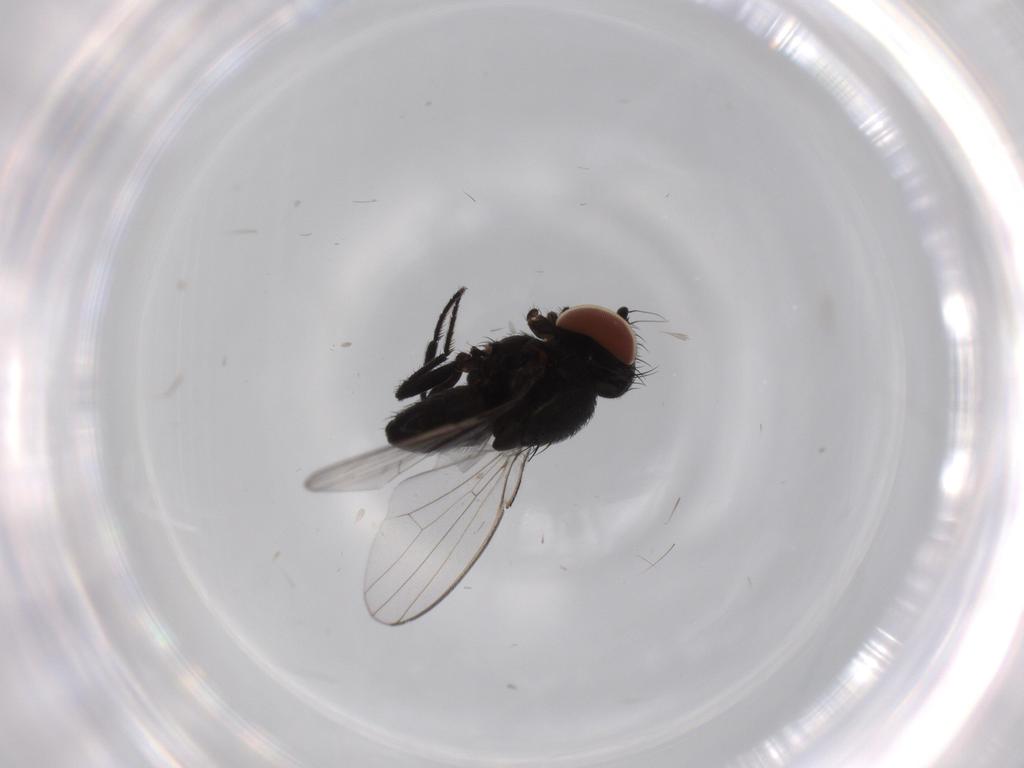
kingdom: Animalia
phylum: Arthropoda
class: Insecta
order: Diptera
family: Milichiidae
